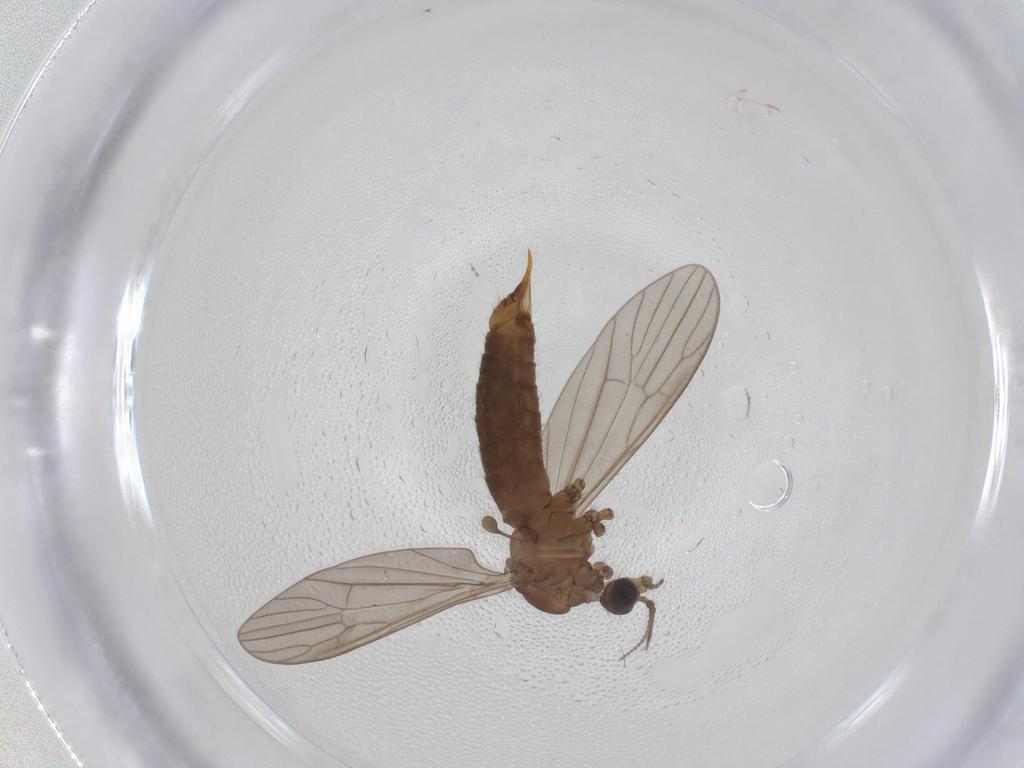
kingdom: Animalia
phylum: Arthropoda
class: Insecta
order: Diptera
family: Limoniidae
